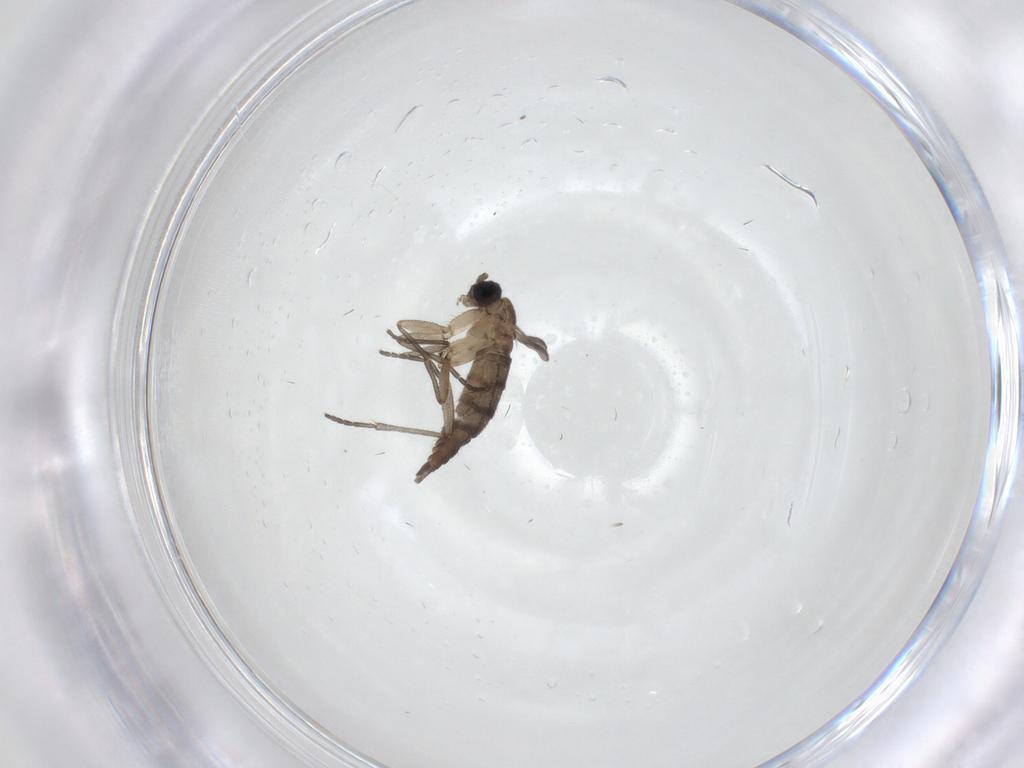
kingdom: Animalia
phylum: Arthropoda
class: Insecta
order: Diptera
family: Sciaridae
